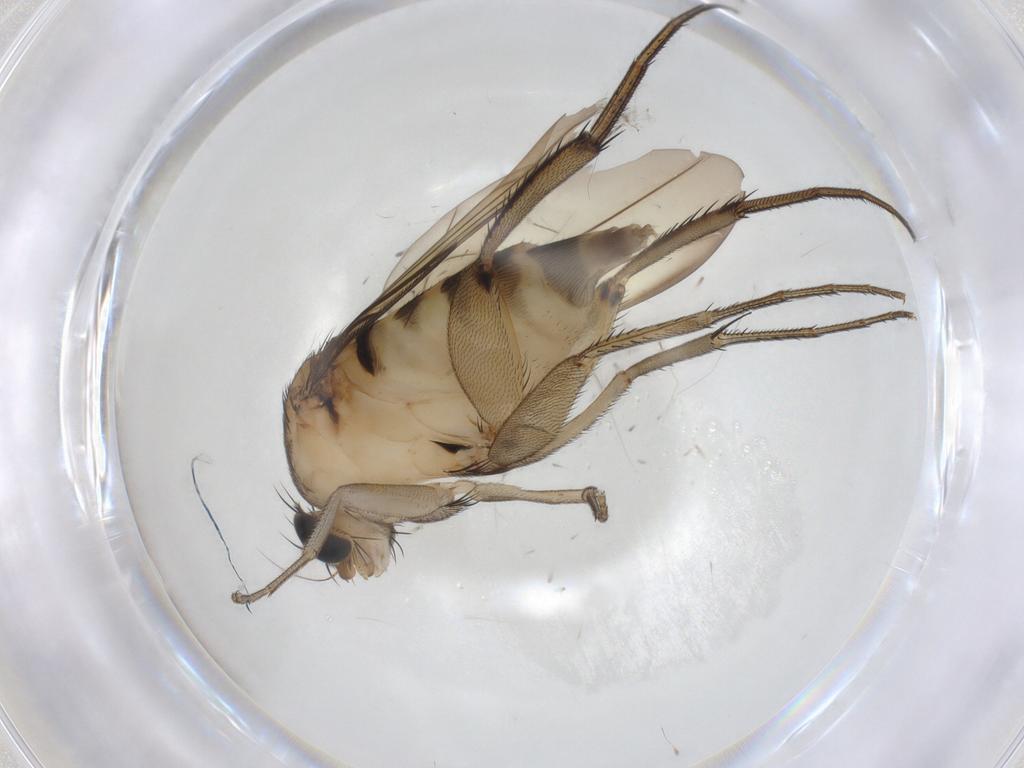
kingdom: Animalia
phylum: Arthropoda
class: Insecta
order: Diptera
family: Phoridae
